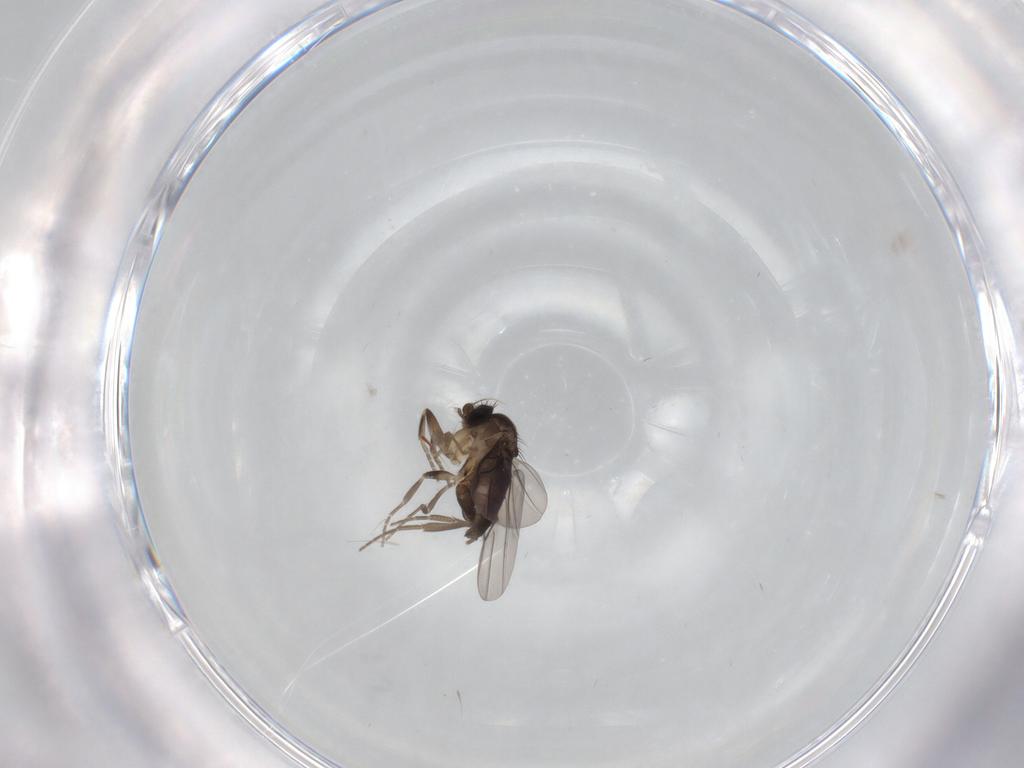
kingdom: Animalia
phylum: Arthropoda
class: Insecta
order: Diptera
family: Phoridae
